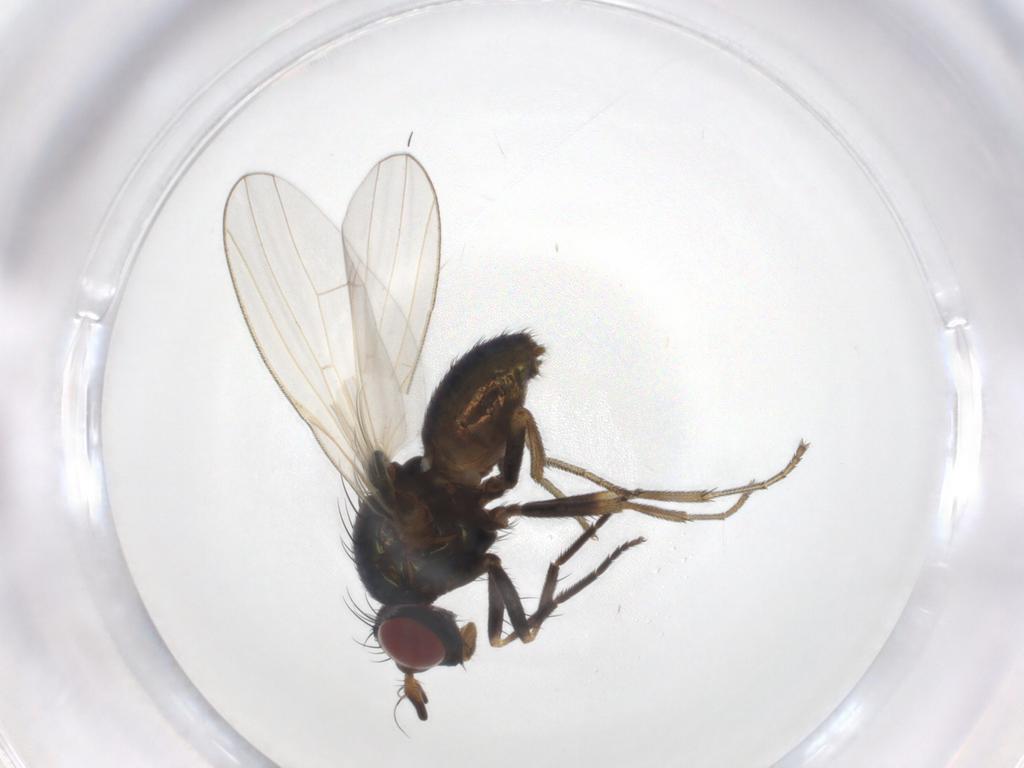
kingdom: Animalia
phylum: Arthropoda
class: Insecta
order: Diptera
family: Lauxaniidae
